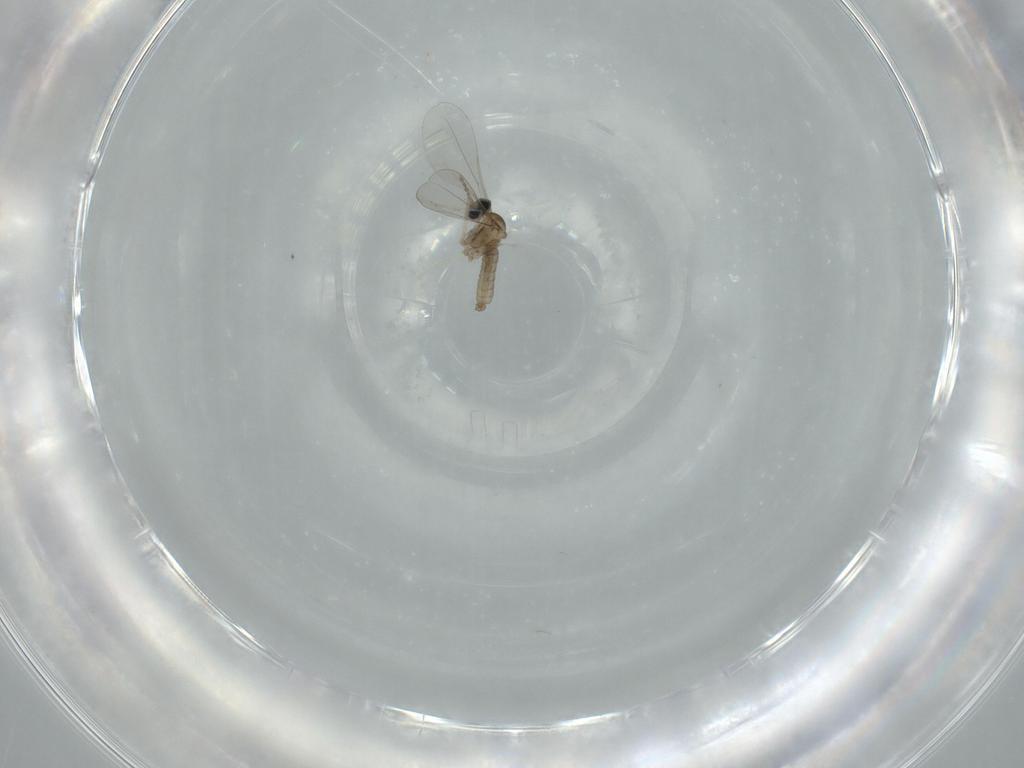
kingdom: Animalia
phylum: Arthropoda
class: Insecta
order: Diptera
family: Cecidomyiidae
